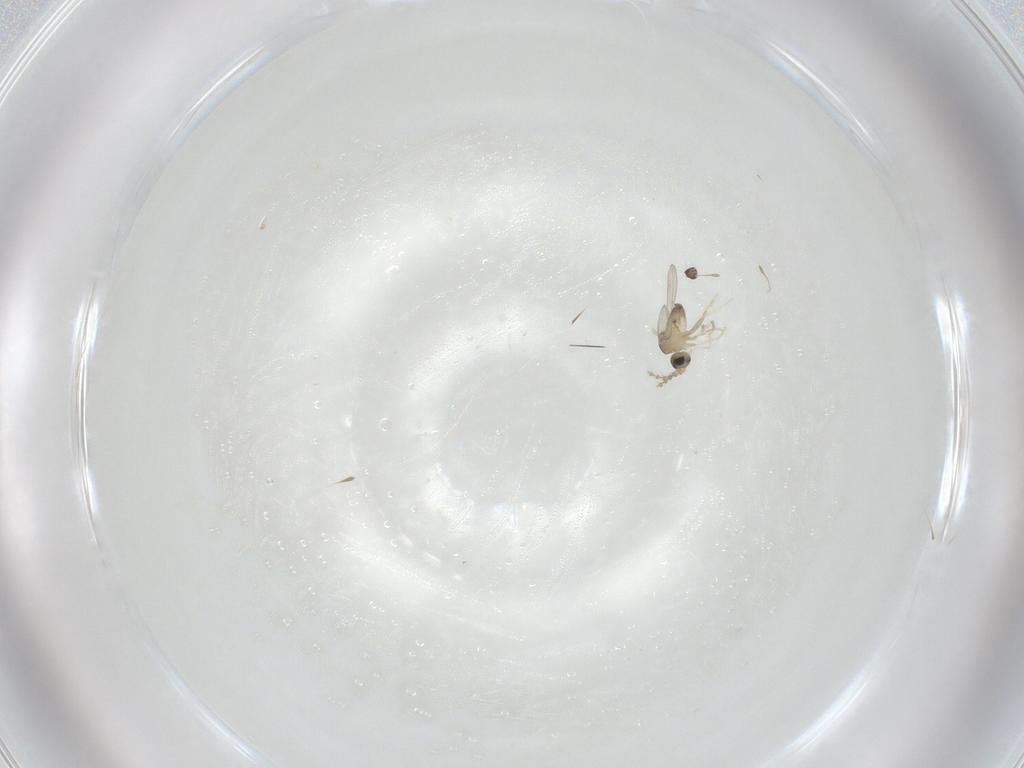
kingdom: Animalia
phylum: Arthropoda
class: Insecta
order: Diptera
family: Cecidomyiidae
